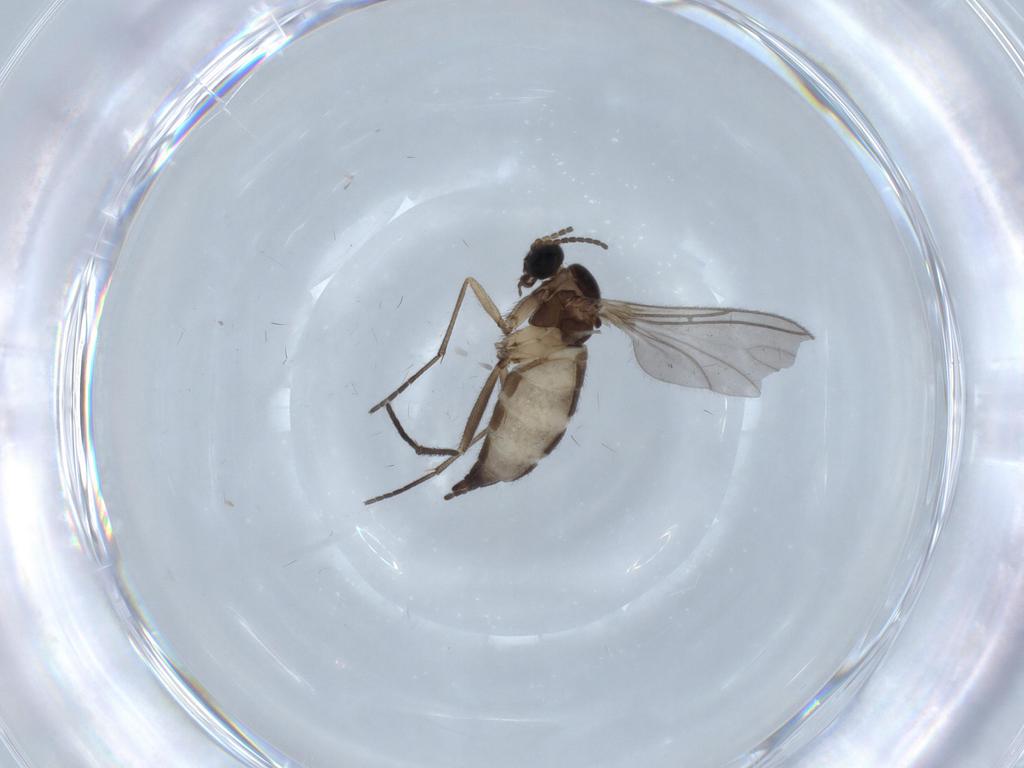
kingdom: Animalia
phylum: Arthropoda
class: Insecta
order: Diptera
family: Sciaridae
